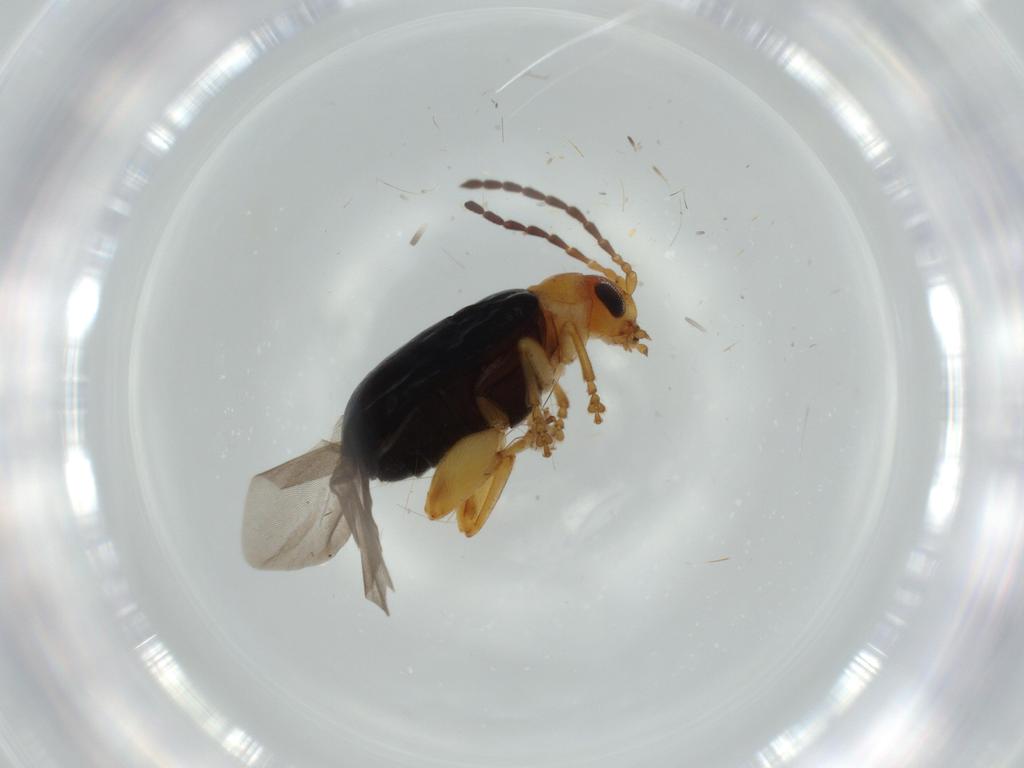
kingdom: Animalia
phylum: Arthropoda
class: Insecta
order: Coleoptera
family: Chrysomelidae
